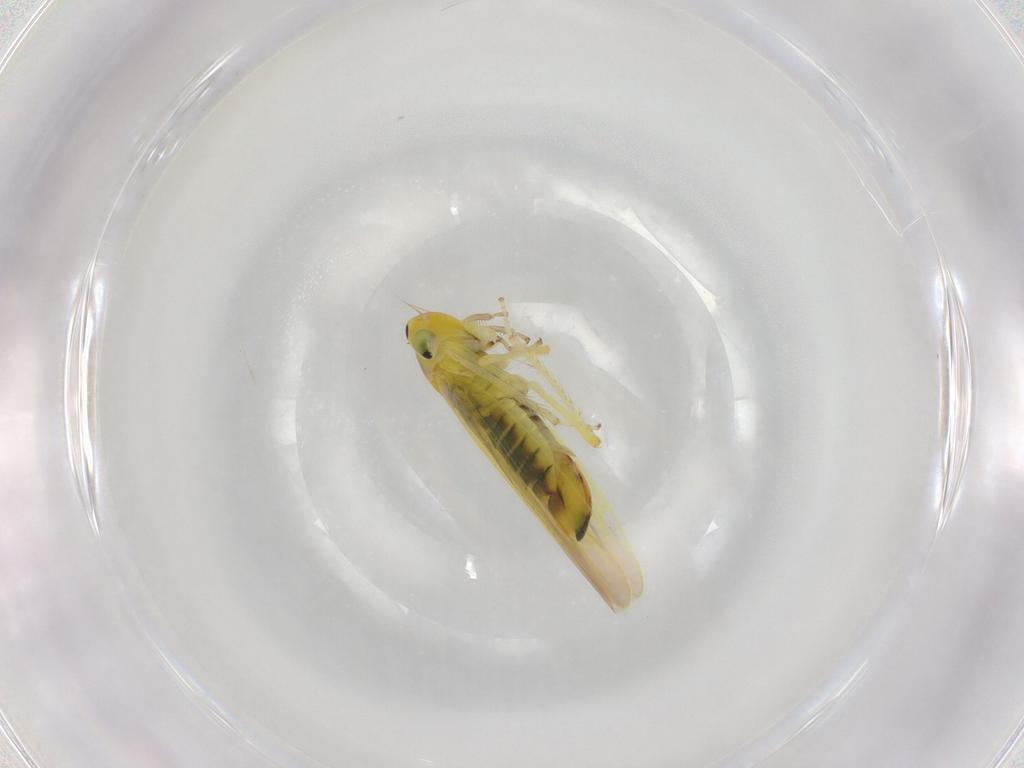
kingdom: Animalia
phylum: Arthropoda
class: Insecta
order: Hemiptera
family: Cicadellidae
